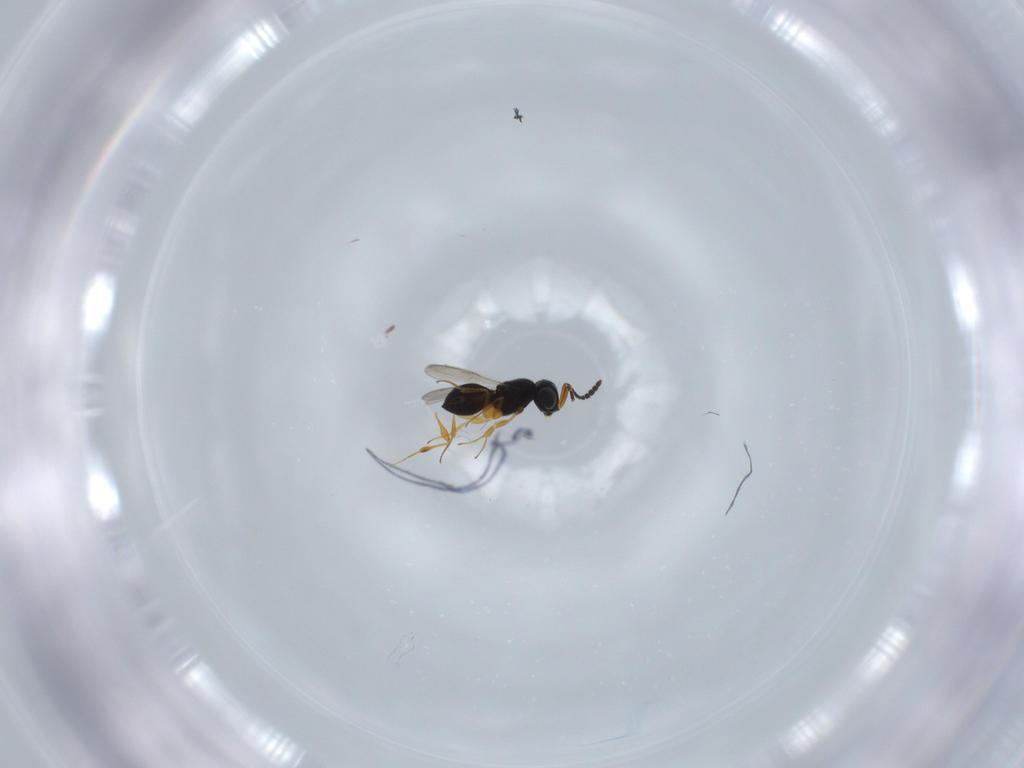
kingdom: Animalia
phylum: Arthropoda
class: Insecta
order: Hymenoptera
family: Scelionidae
